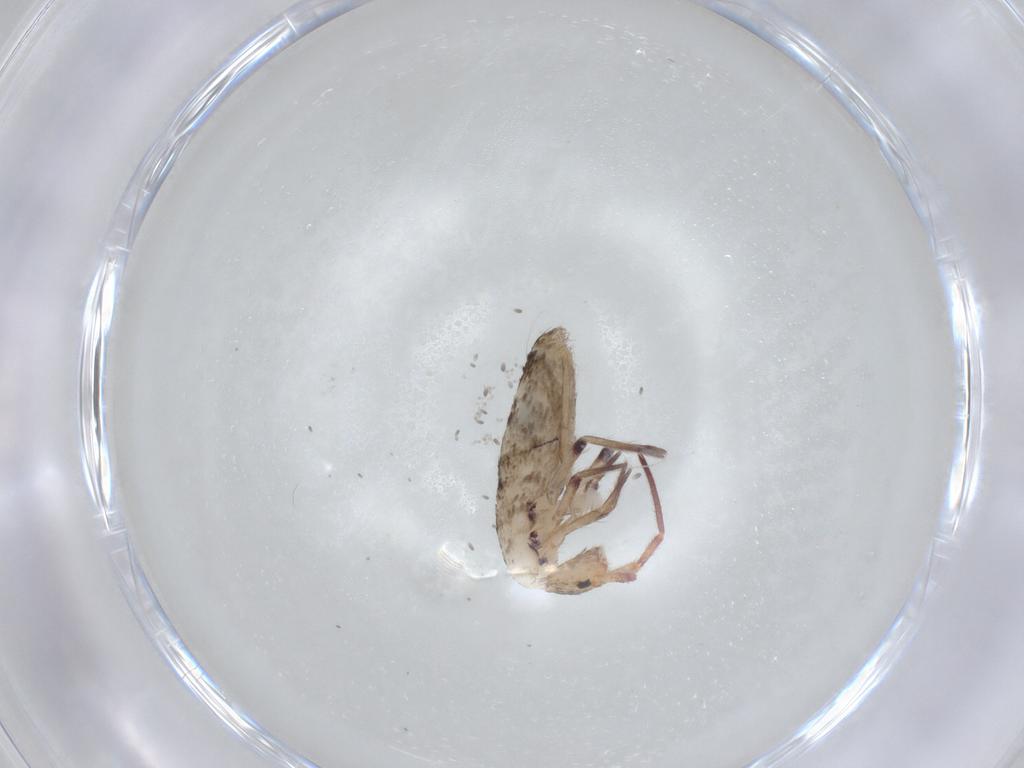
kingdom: Animalia
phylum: Arthropoda
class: Collembola
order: Entomobryomorpha
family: Entomobryidae
